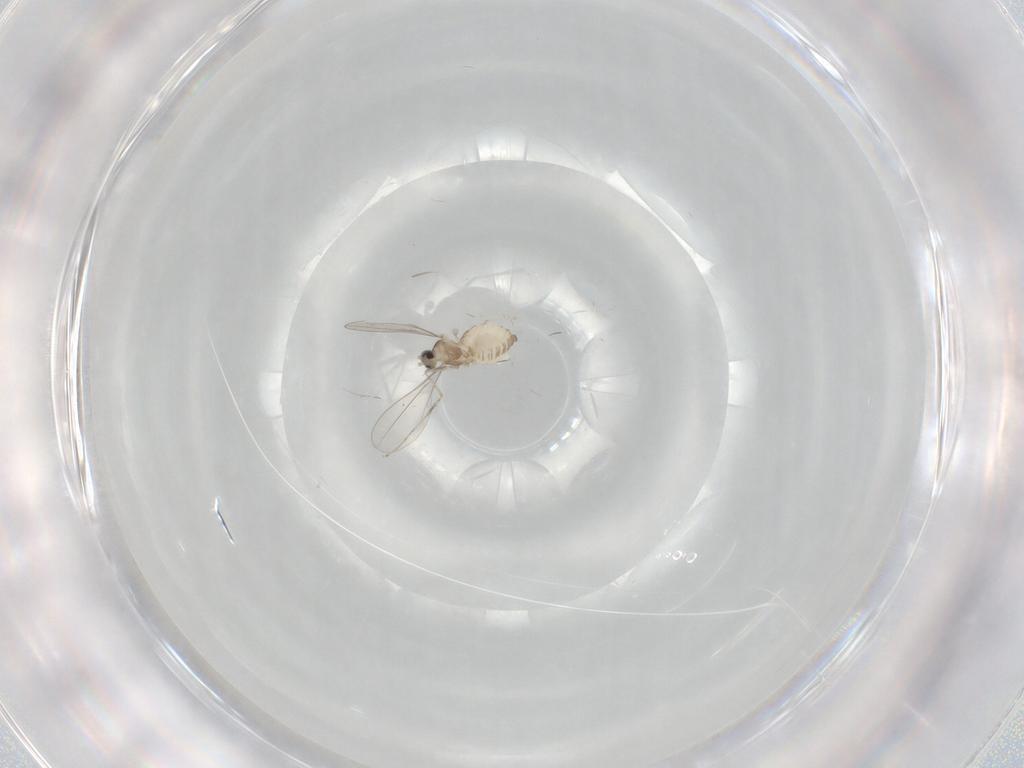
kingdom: Animalia
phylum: Arthropoda
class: Insecta
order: Diptera
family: Cecidomyiidae
